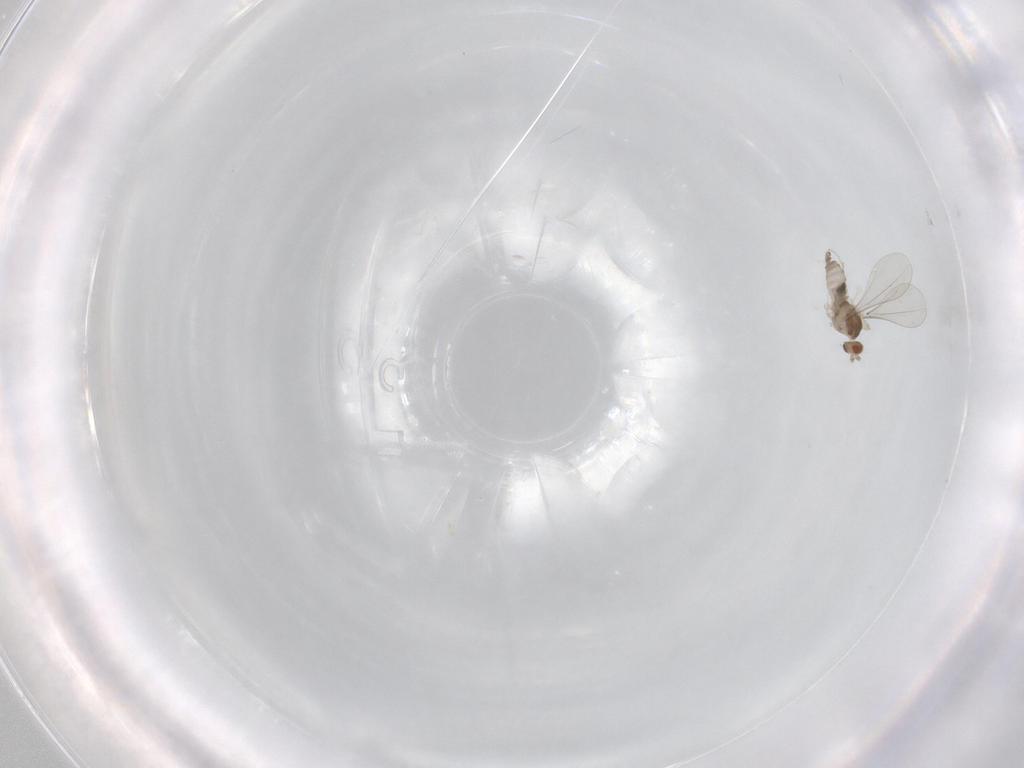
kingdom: Animalia
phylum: Arthropoda
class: Insecta
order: Diptera
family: Cecidomyiidae
